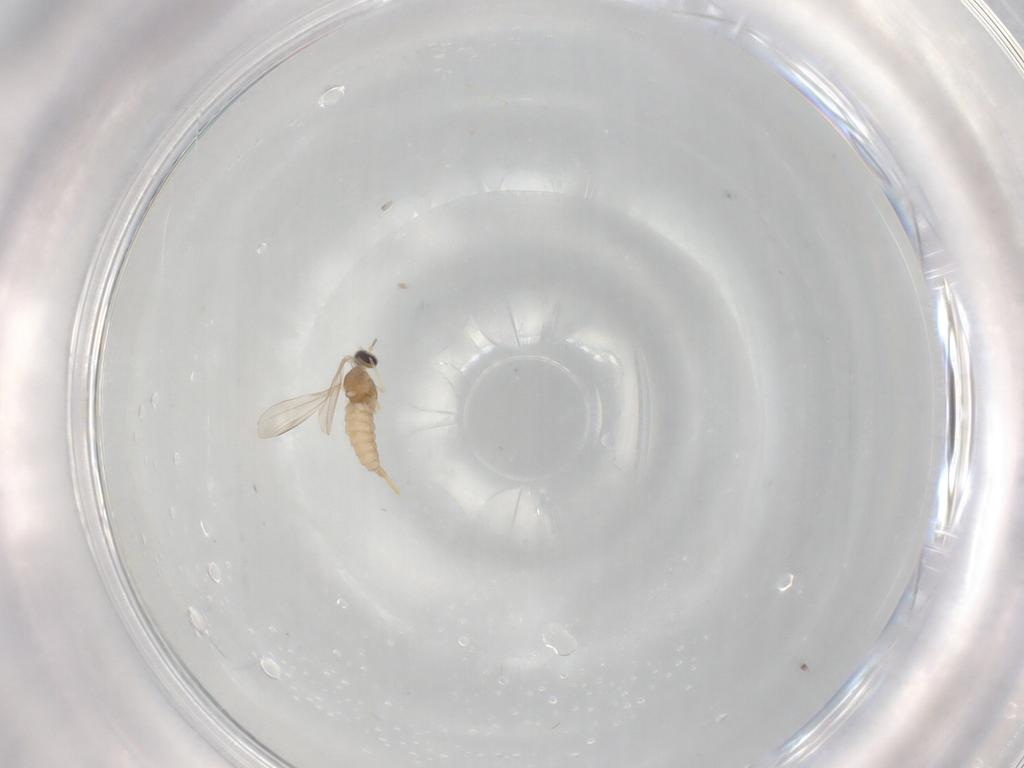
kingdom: Animalia
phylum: Arthropoda
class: Insecta
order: Diptera
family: Cecidomyiidae
